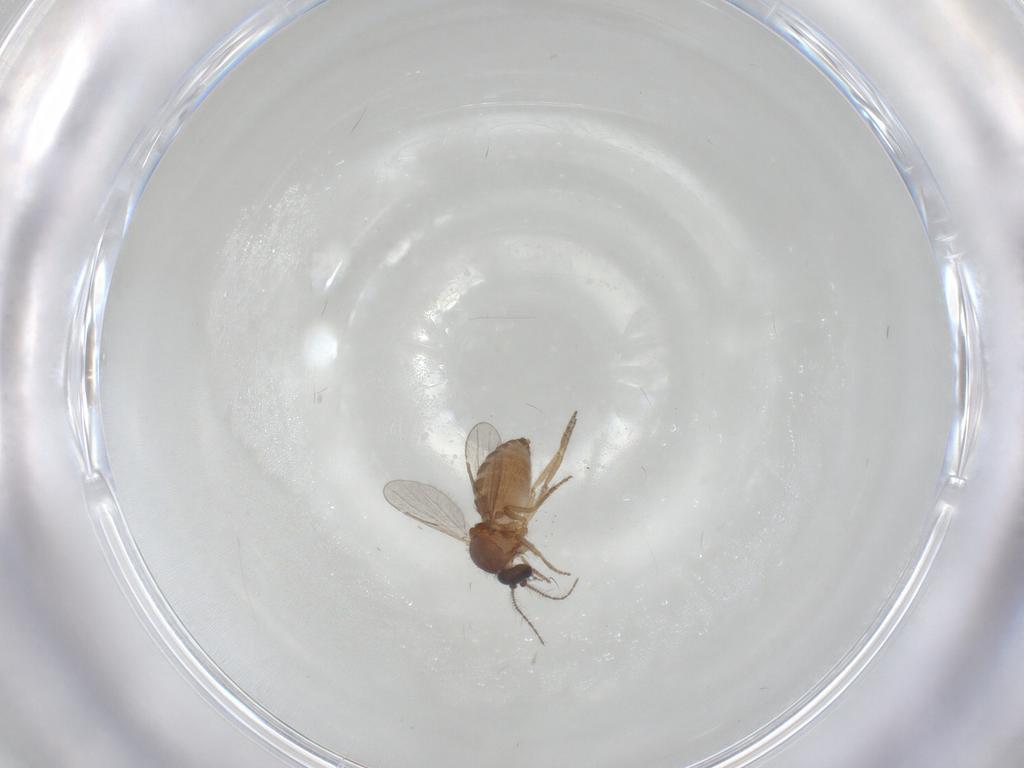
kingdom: Animalia
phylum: Arthropoda
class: Insecta
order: Diptera
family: Ceratopogonidae
